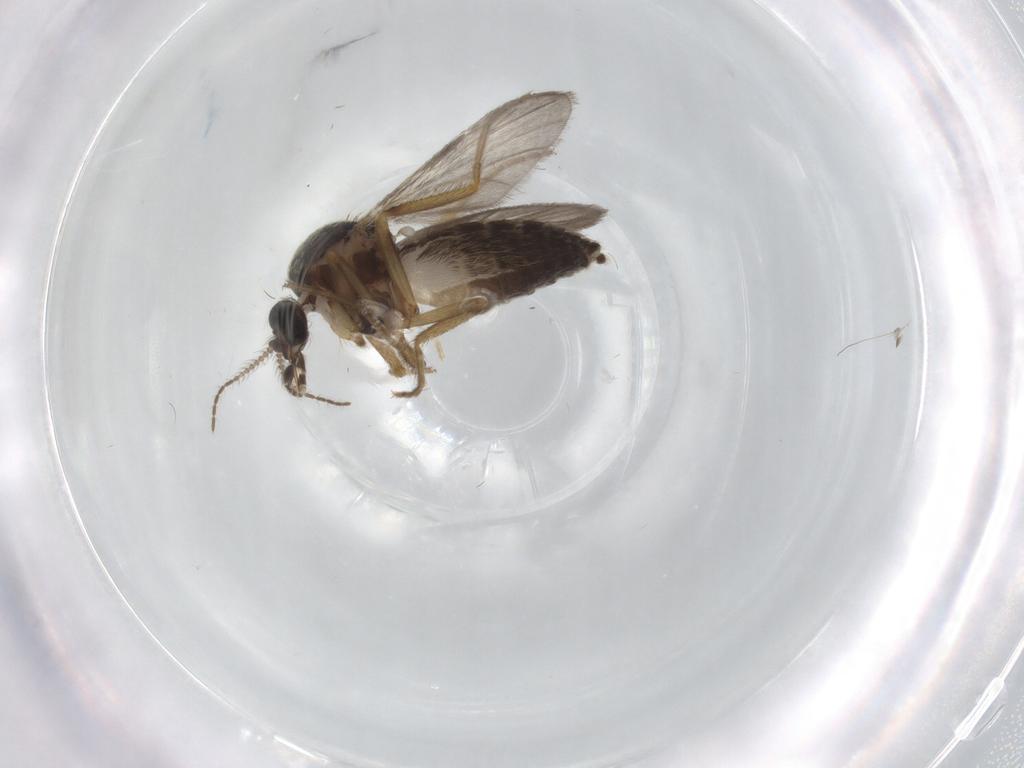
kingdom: Animalia
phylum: Arthropoda
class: Insecta
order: Diptera
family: Ceratopogonidae
